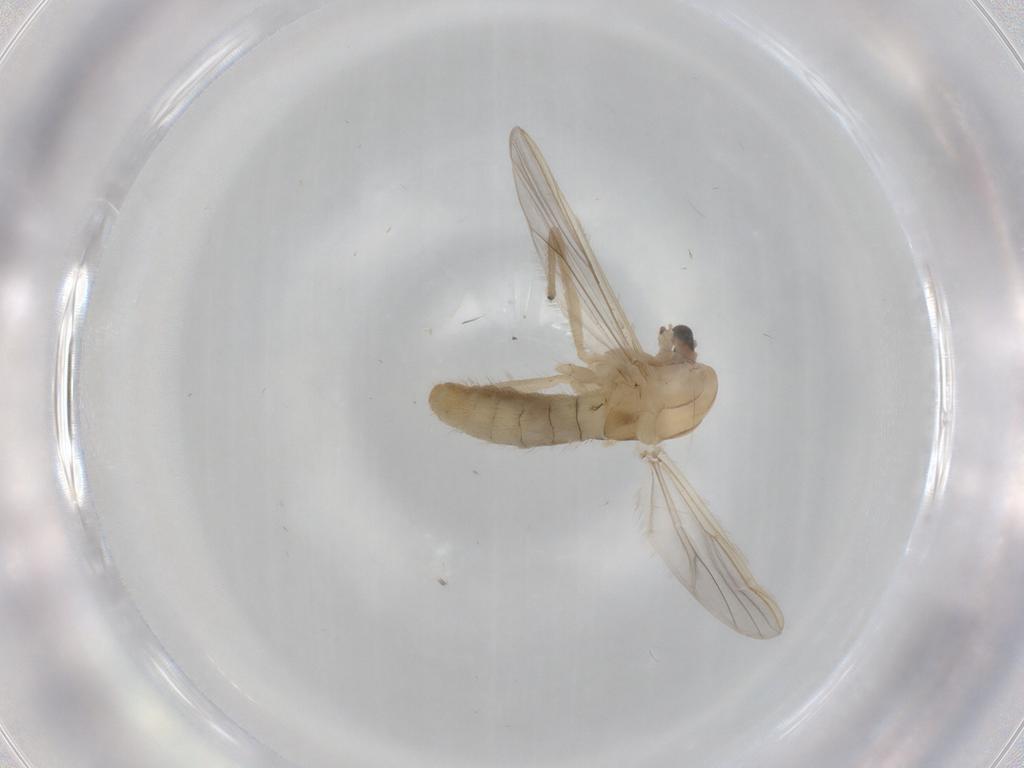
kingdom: Animalia
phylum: Arthropoda
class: Insecta
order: Diptera
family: Chironomidae
